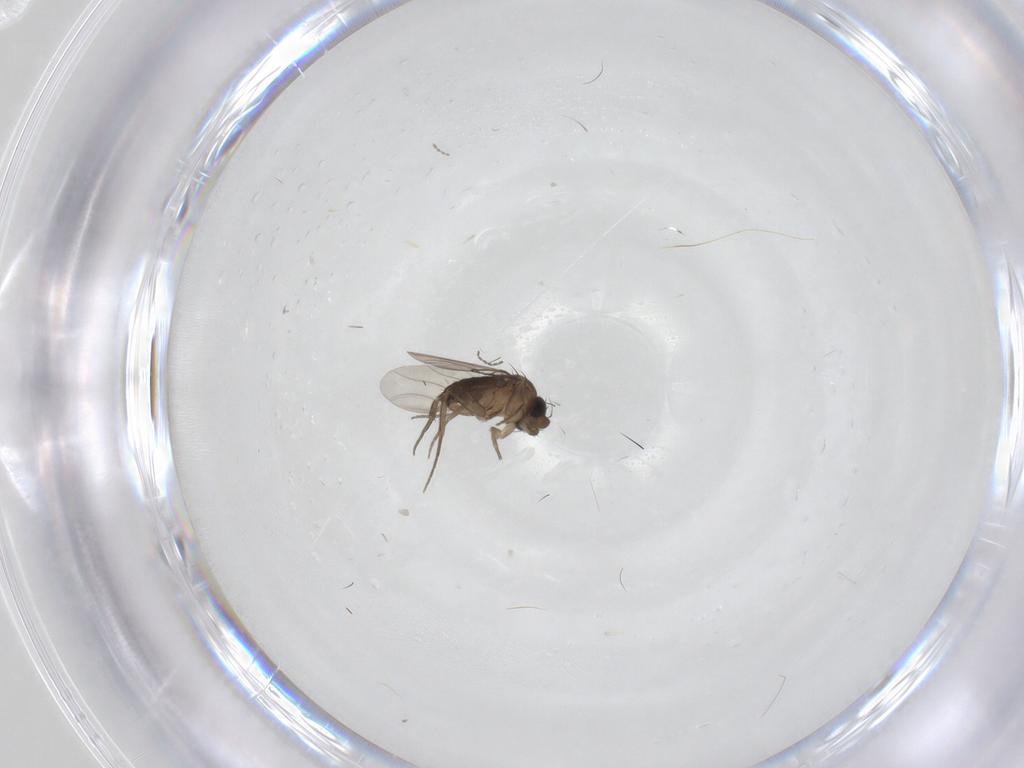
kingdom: Animalia
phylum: Arthropoda
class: Insecta
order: Diptera
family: Phoridae
